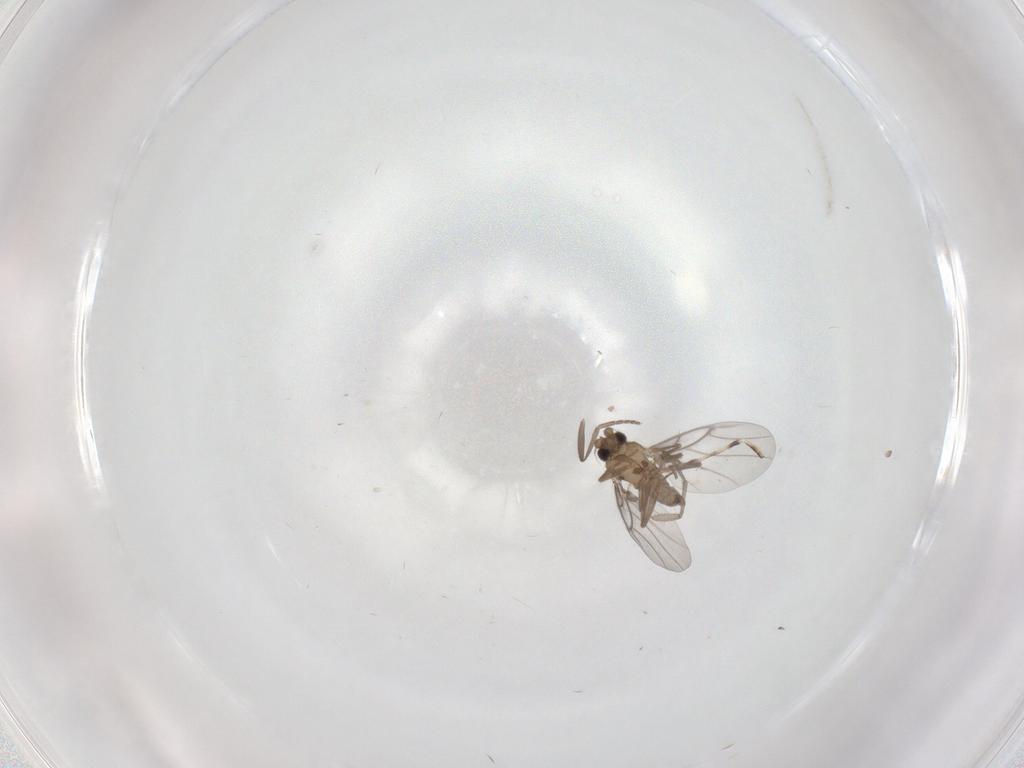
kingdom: Animalia
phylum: Arthropoda
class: Insecta
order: Diptera
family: Phoridae
